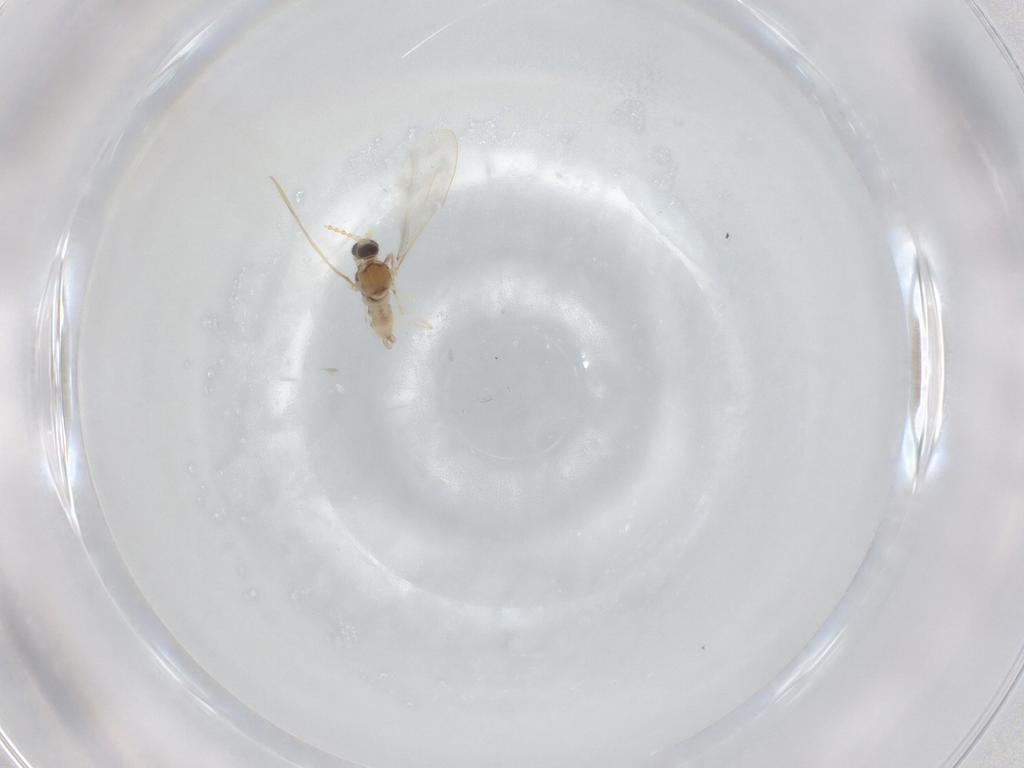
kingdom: Animalia
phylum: Arthropoda
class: Insecta
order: Diptera
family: Cecidomyiidae
